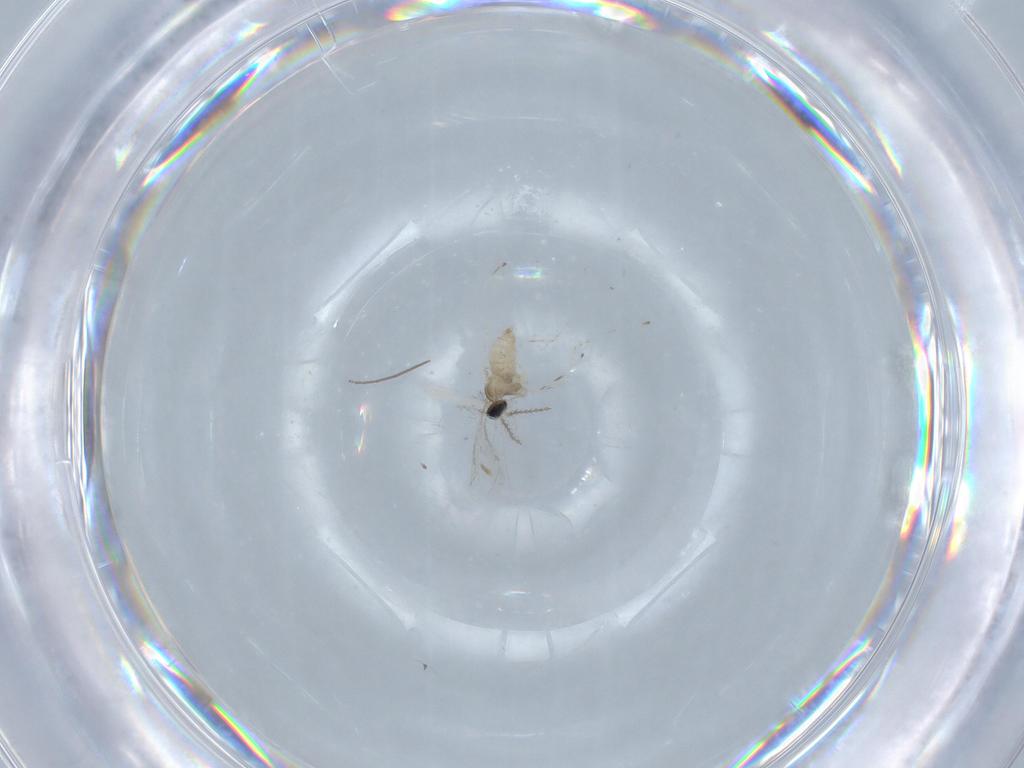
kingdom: Animalia
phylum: Arthropoda
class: Insecta
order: Diptera
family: Cecidomyiidae
